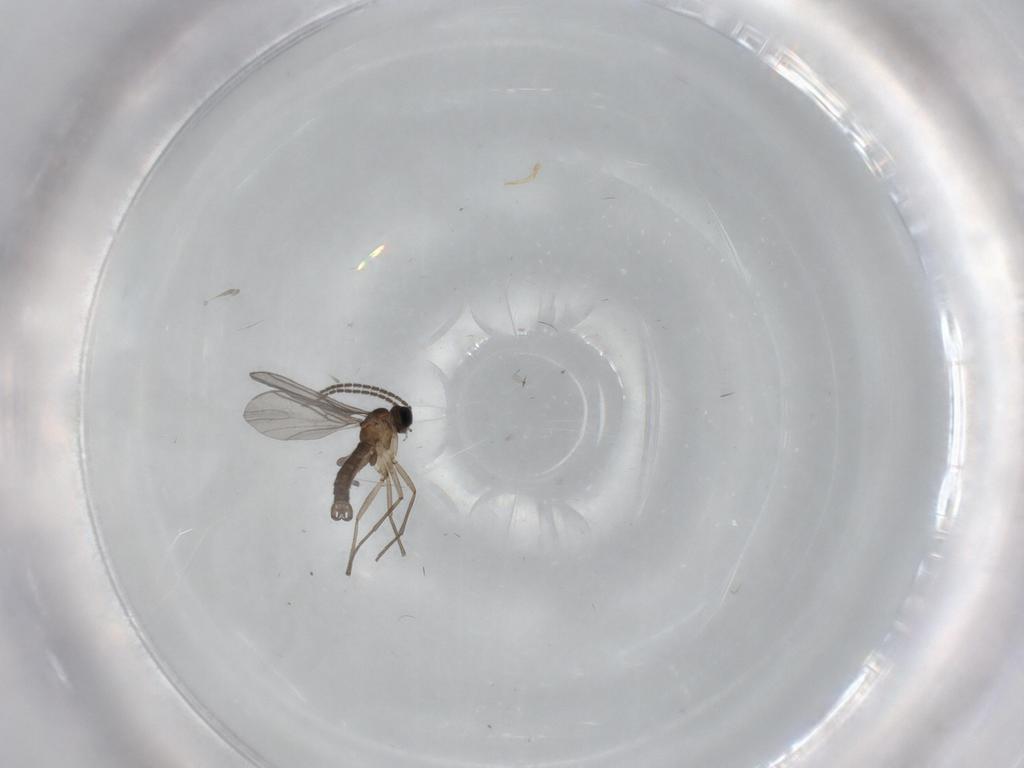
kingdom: Animalia
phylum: Arthropoda
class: Insecta
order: Diptera
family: Sciaridae
